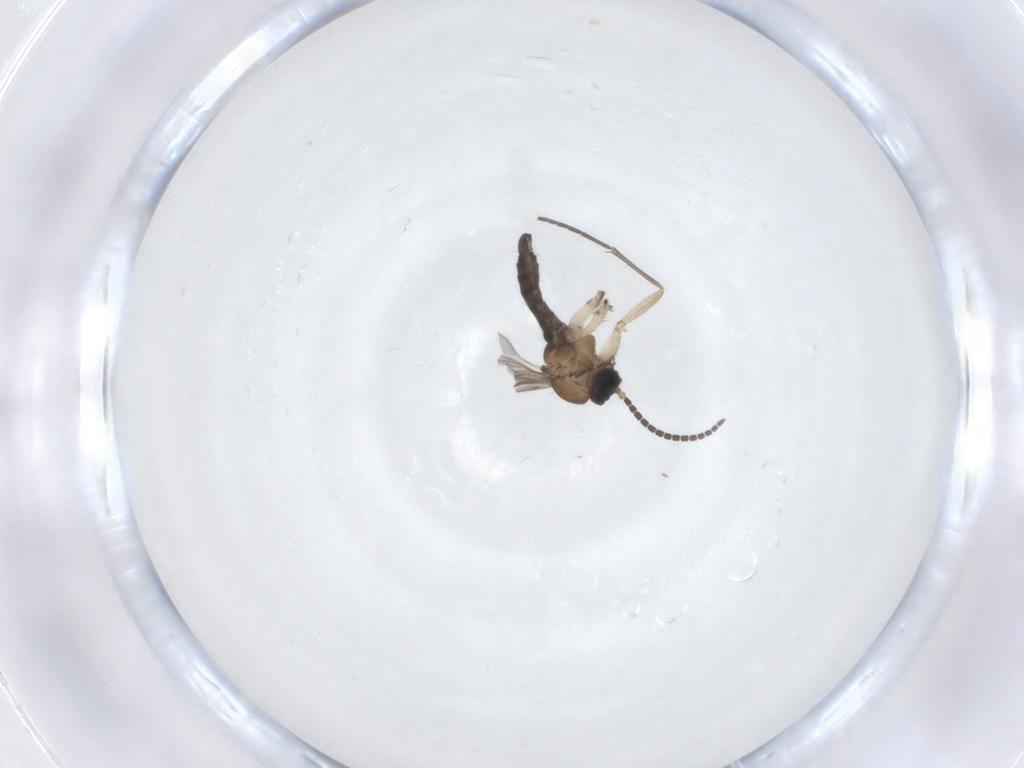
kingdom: Animalia
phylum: Arthropoda
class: Insecta
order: Diptera
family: Sciaridae
